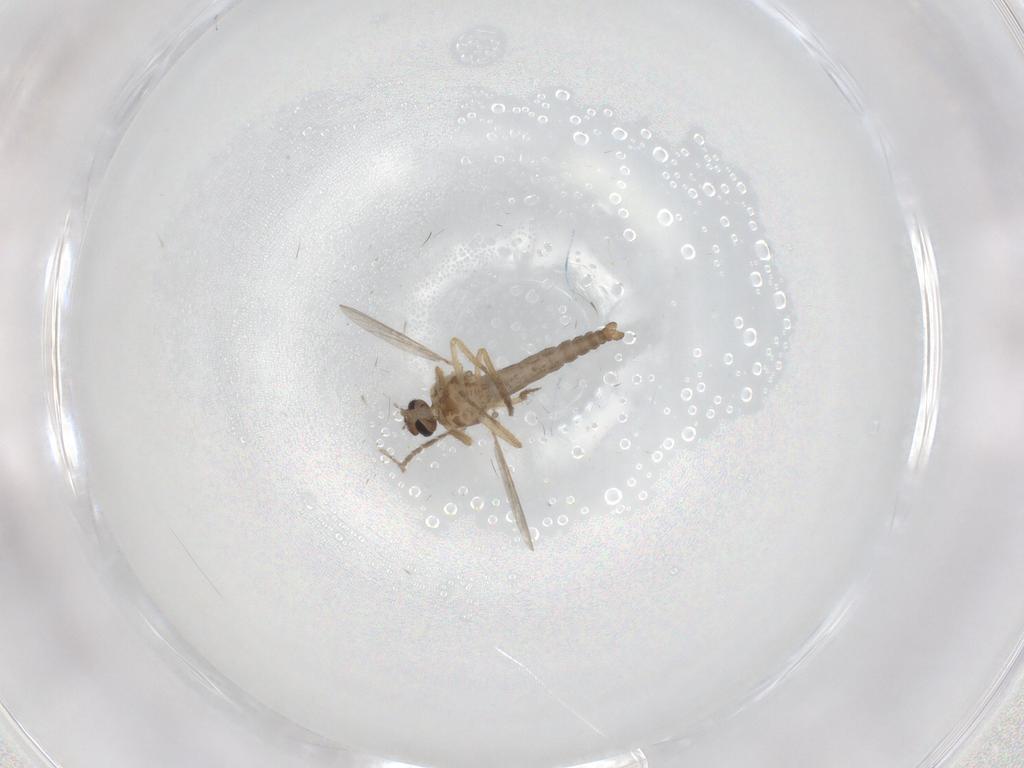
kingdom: Animalia
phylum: Arthropoda
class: Insecta
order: Diptera
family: Ceratopogonidae
